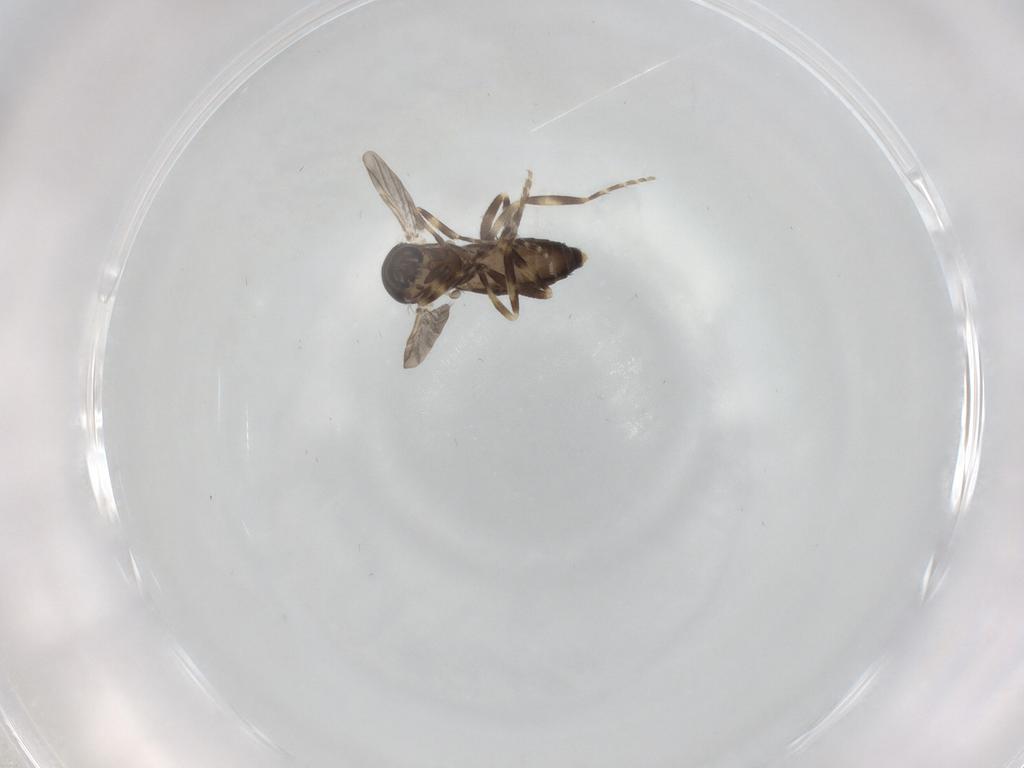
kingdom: Animalia
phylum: Arthropoda
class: Insecta
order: Diptera
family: Ceratopogonidae
